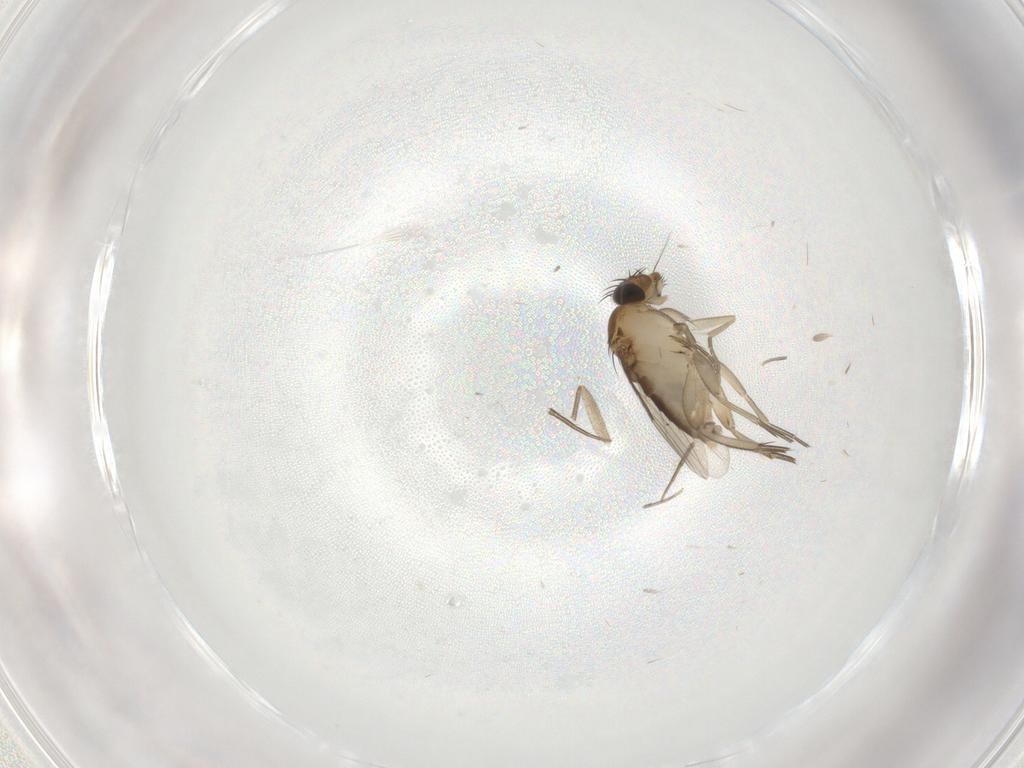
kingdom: Animalia
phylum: Arthropoda
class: Insecta
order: Diptera
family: Phoridae
